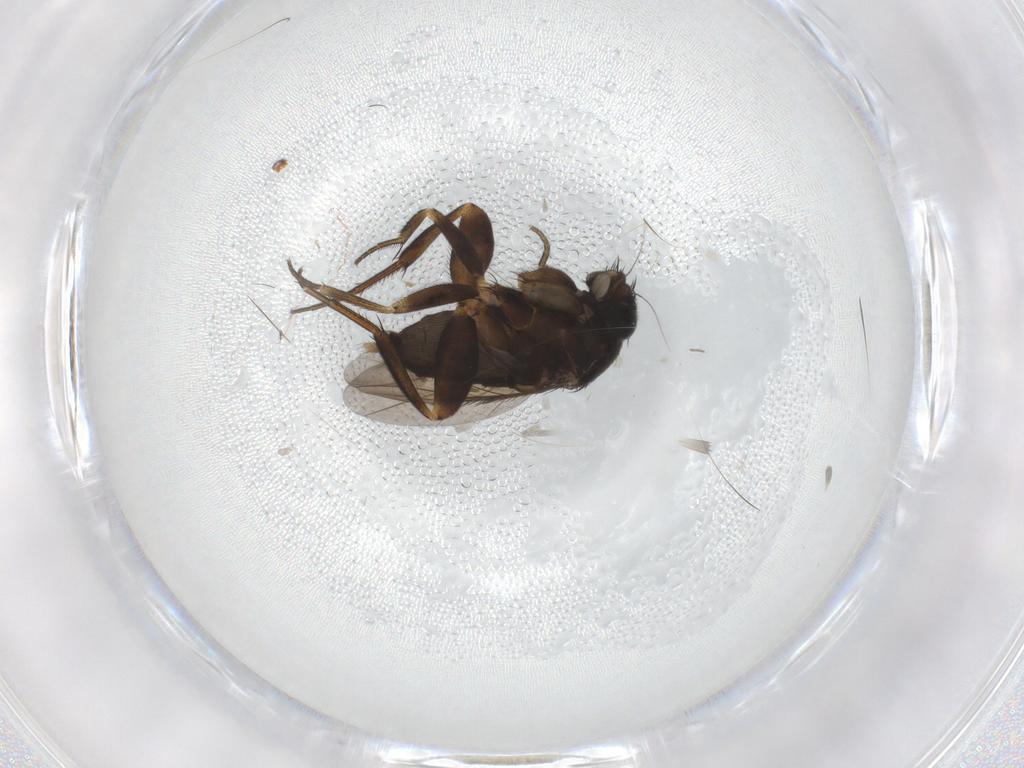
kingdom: Animalia
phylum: Arthropoda
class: Insecta
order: Diptera
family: Phoridae
